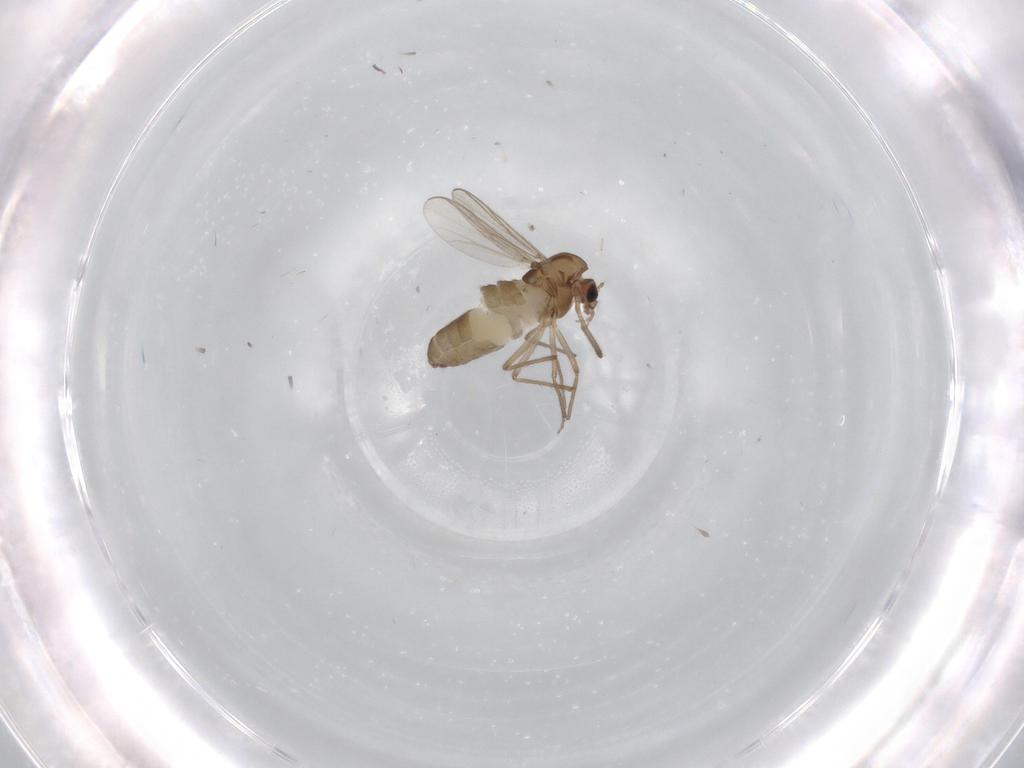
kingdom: Animalia
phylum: Arthropoda
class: Insecta
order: Diptera
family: Chironomidae
